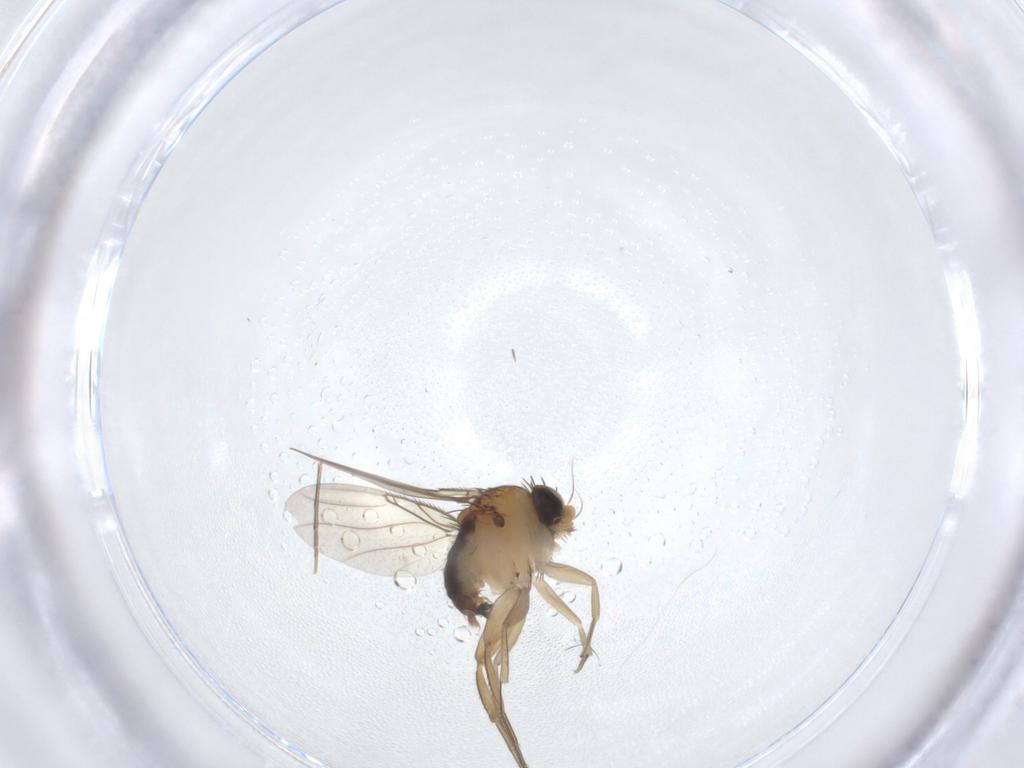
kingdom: Animalia
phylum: Arthropoda
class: Insecta
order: Diptera
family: Phoridae
